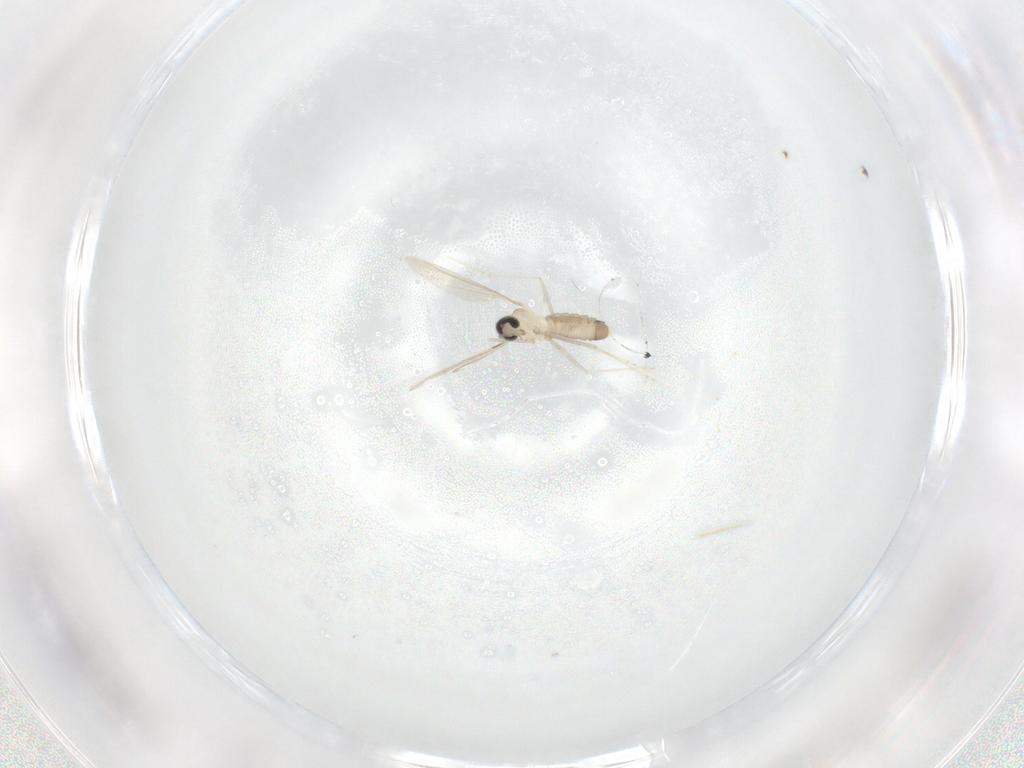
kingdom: Animalia
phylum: Arthropoda
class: Insecta
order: Diptera
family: Cecidomyiidae
